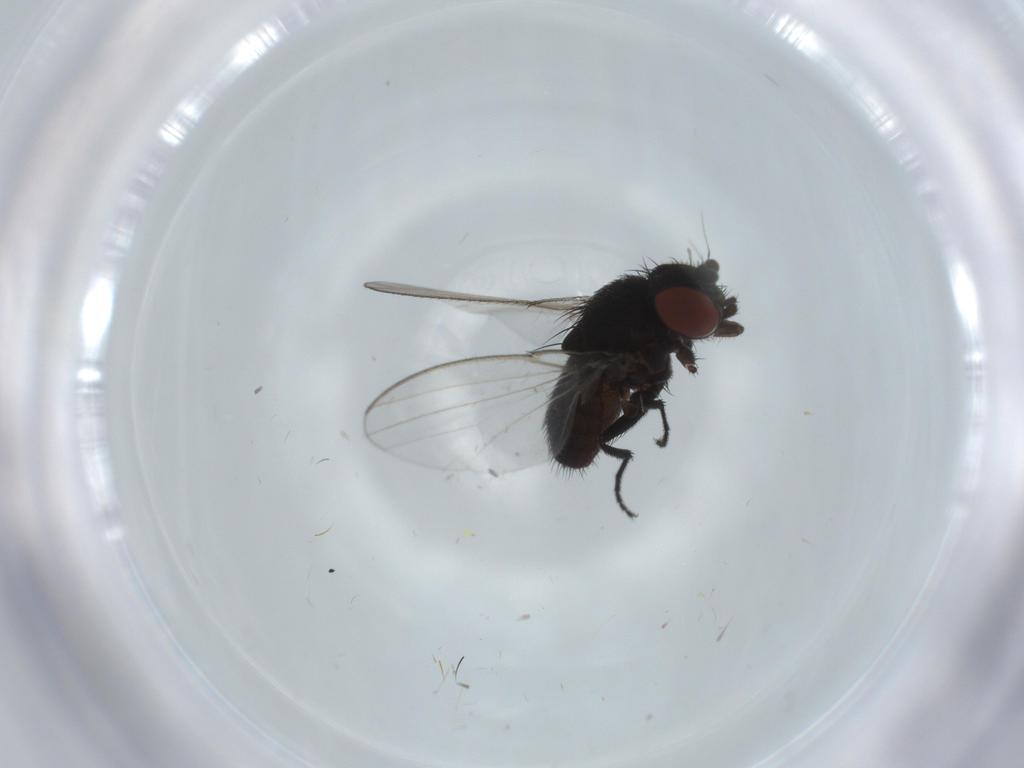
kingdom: Animalia
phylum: Arthropoda
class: Insecta
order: Diptera
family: Milichiidae
